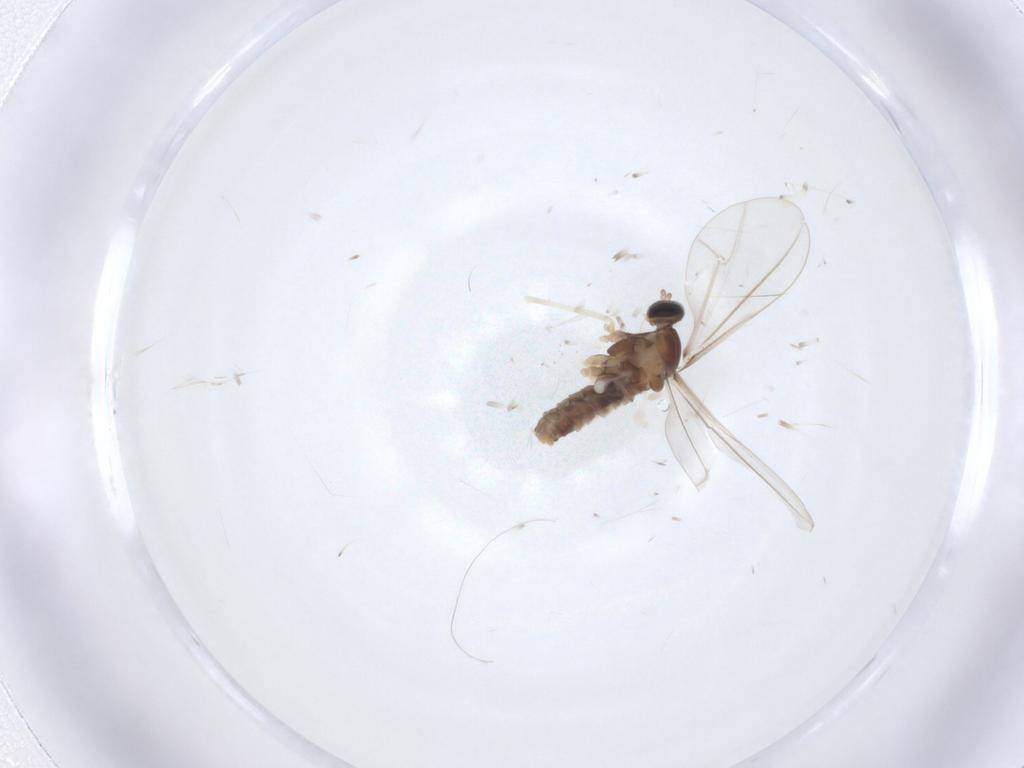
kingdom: Animalia
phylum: Arthropoda
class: Insecta
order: Diptera
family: Cecidomyiidae
